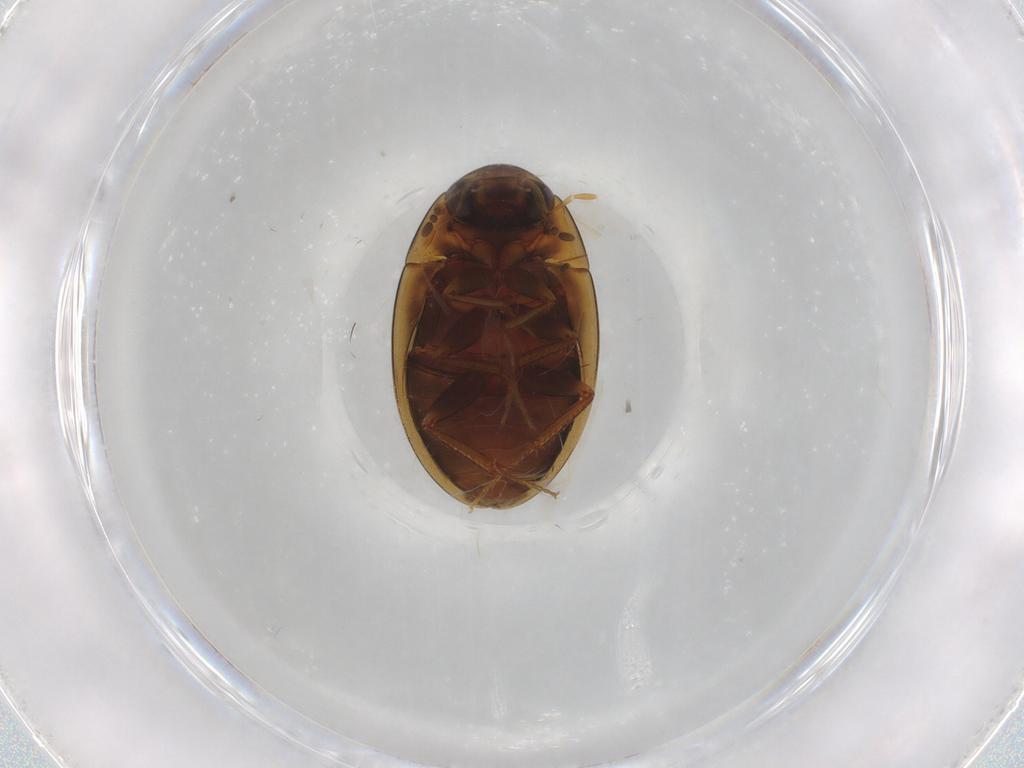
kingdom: Animalia
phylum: Arthropoda
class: Insecta
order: Coleoptera
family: Hydrophilidae
